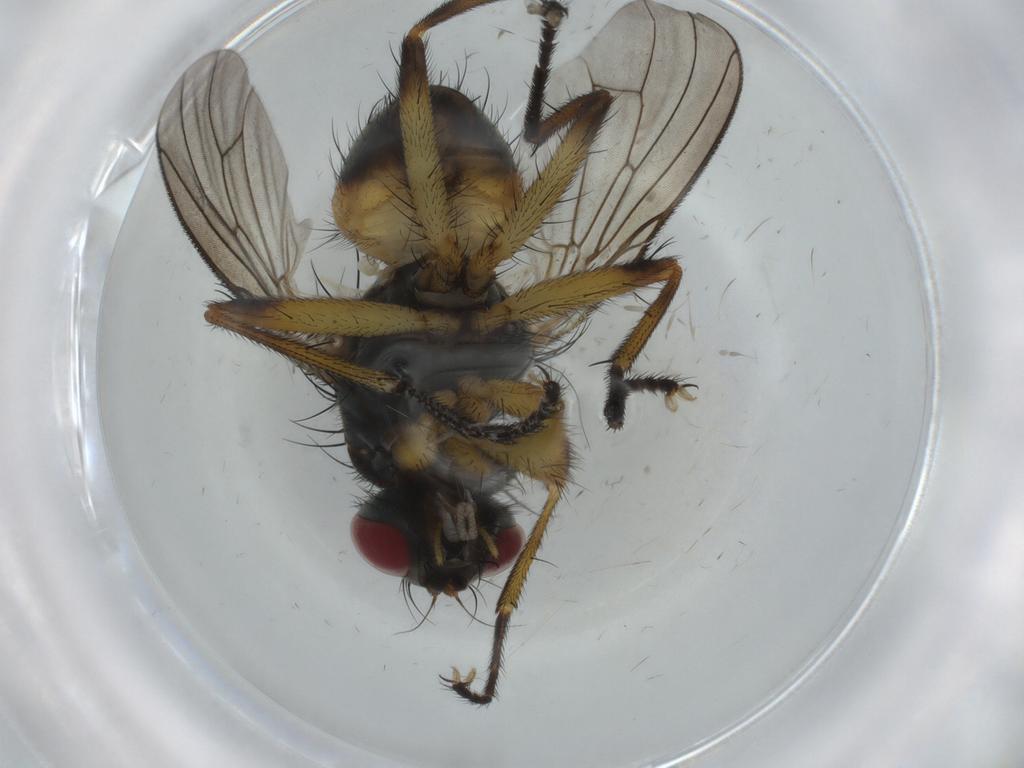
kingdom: Animalia
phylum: Arthropoda
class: Insecta
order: Diptera
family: Muscidae
